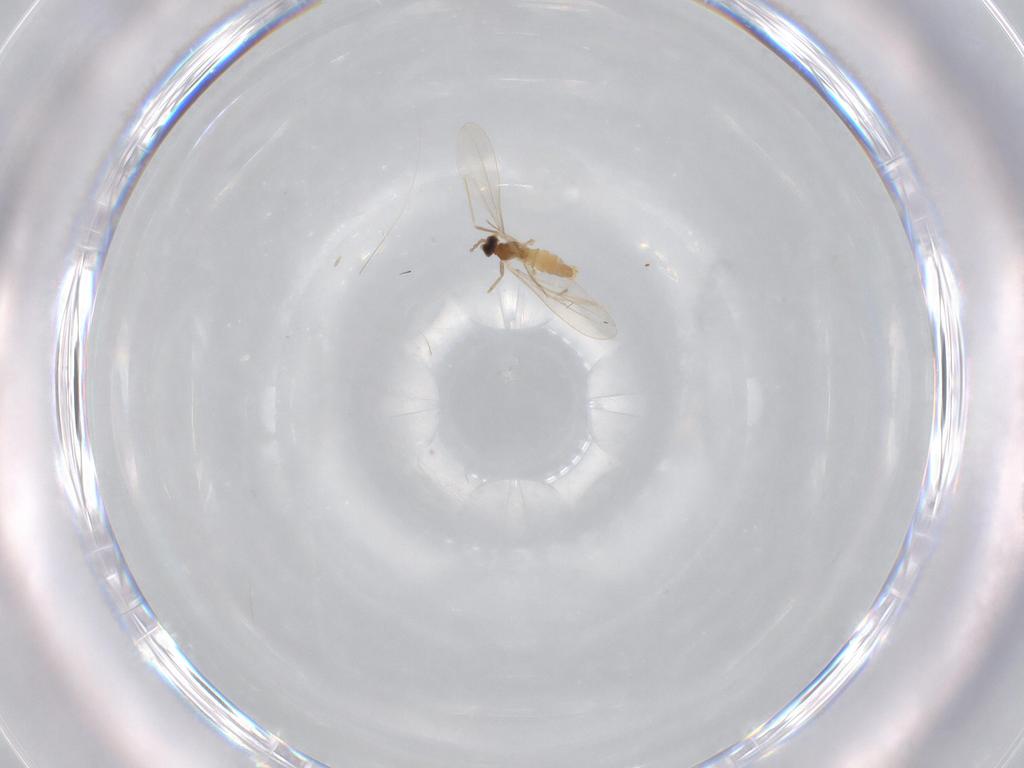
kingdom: Animalia
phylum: Arthropoda
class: Insecta
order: Diptera
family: Cecidomyiidae
